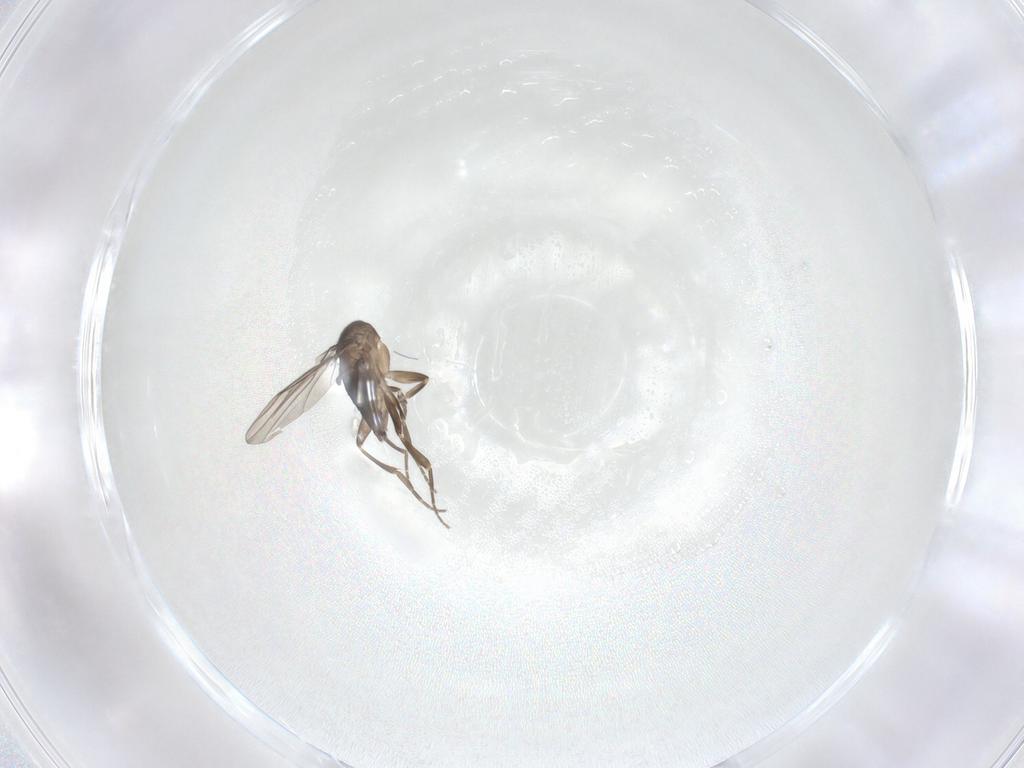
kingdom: Animalia
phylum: Arthropoda
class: Insecta
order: Diptera
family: Phoridae
